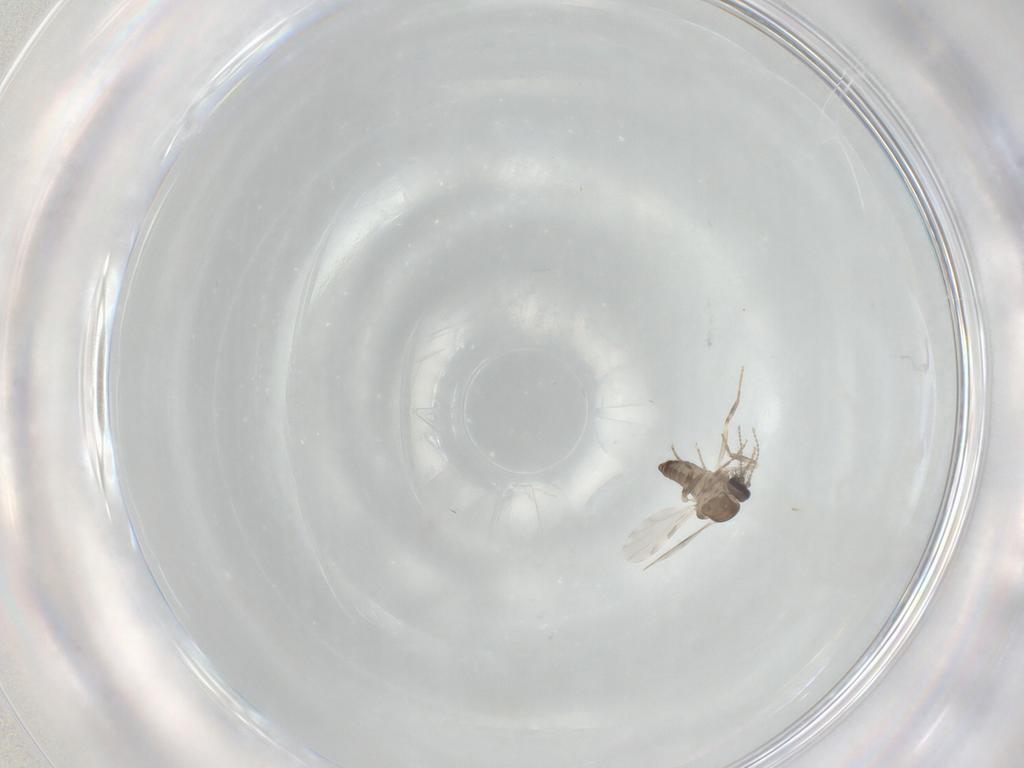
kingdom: Animalia
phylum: Arthropoda
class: Insecta
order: Diptera
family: Ceratopogonidae
